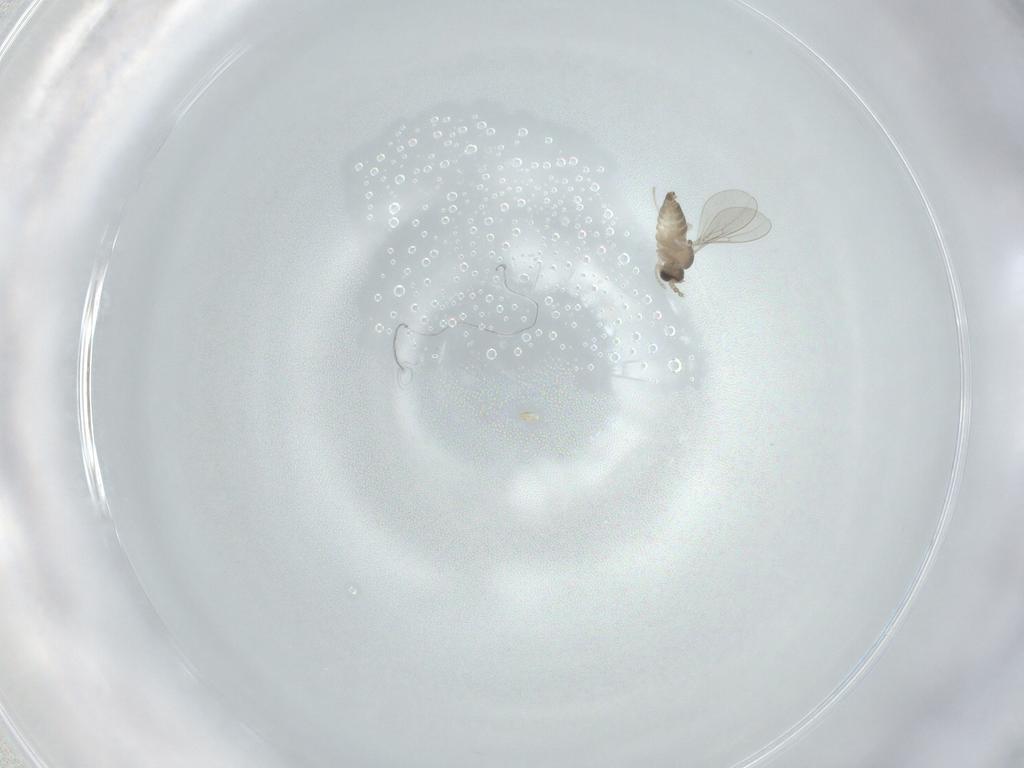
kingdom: Animalia
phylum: Arthropoda
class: Insecta
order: Diptera
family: Cecidomyiidae
